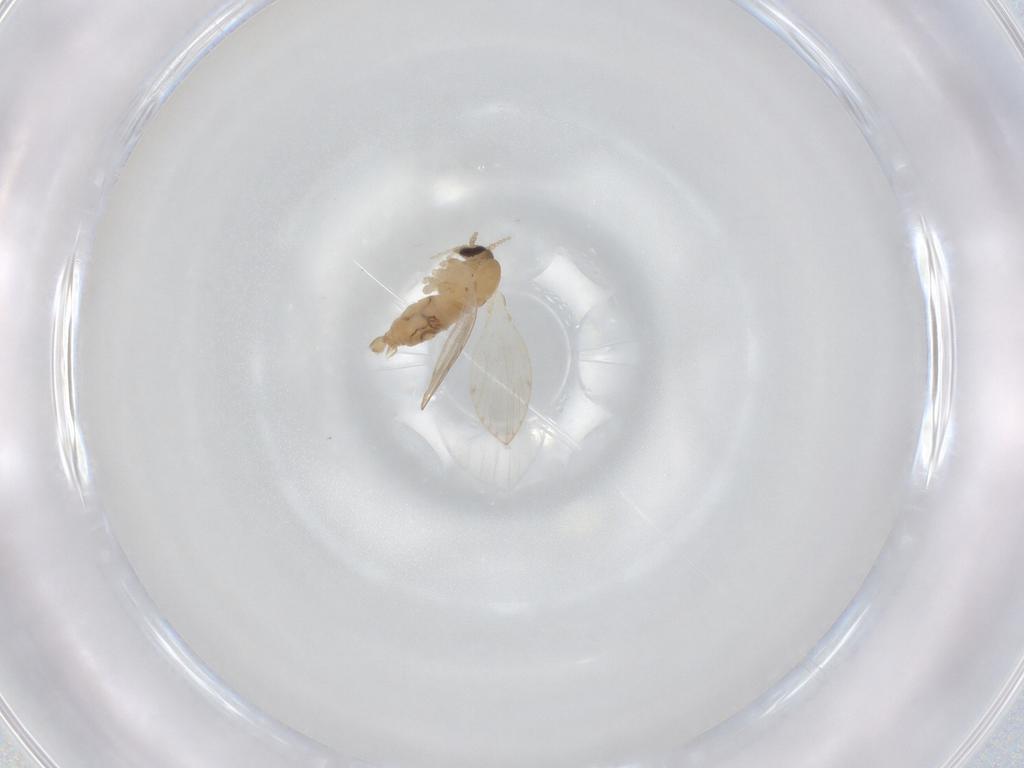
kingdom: Animalia
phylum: Arthropoda
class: Insecta
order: Diptera
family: Psychodidae
